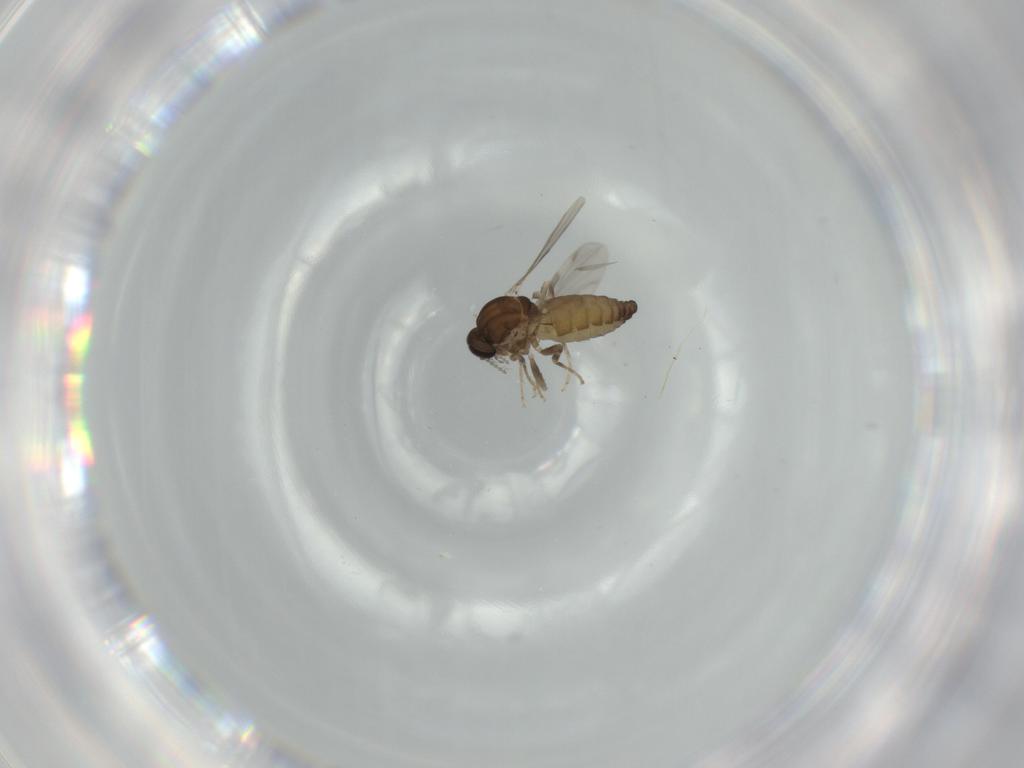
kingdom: Animalia
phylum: Arthropoda
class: Insecta
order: Diptera
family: Ceratopogonidae
